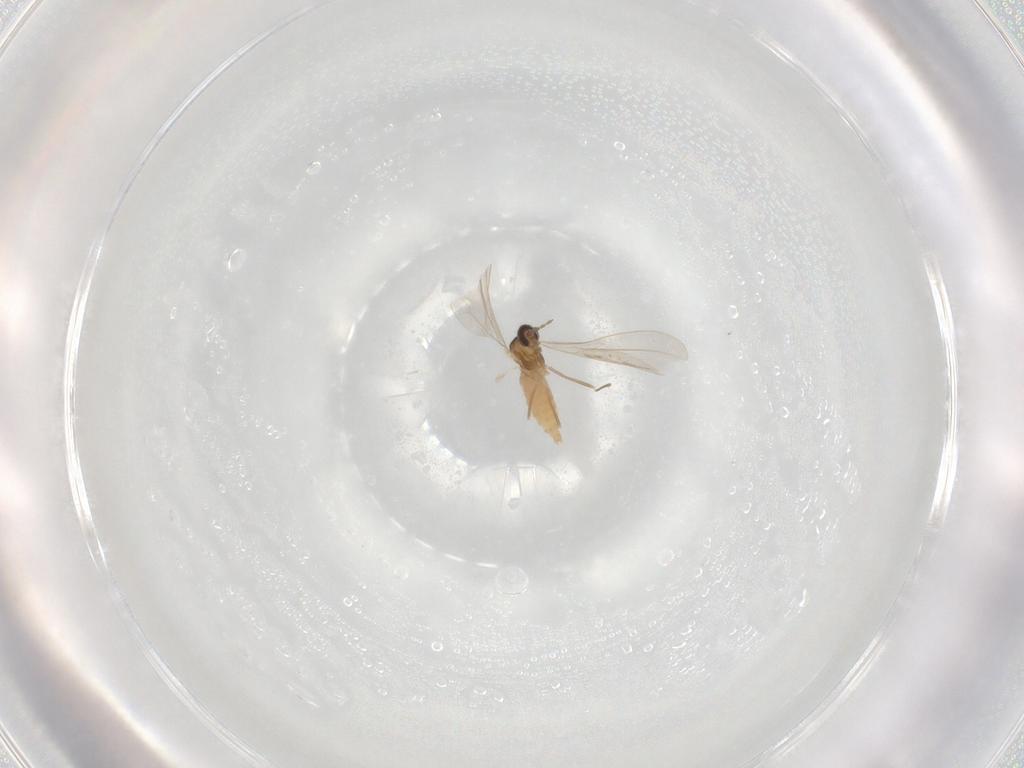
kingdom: Animalia
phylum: Arthropoda
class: Insecta
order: Diptera
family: Cecidomyiidae
